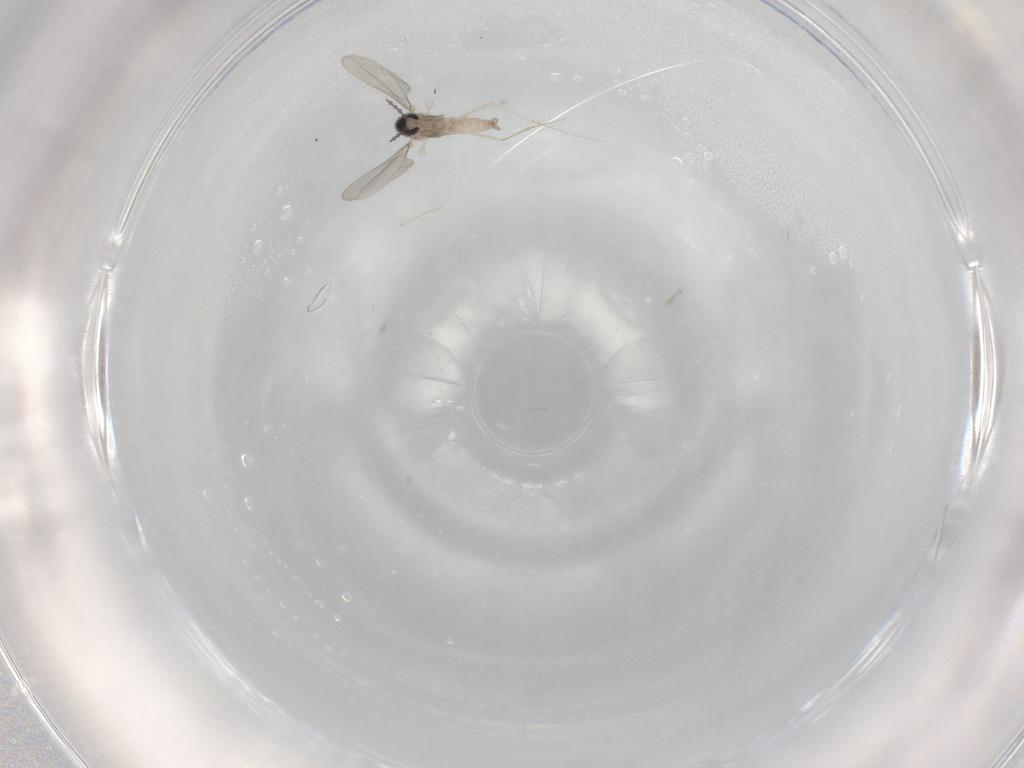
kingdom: Animalia
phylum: Arthropoda
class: Insecta
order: Diptera
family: Cecidomyiidae
